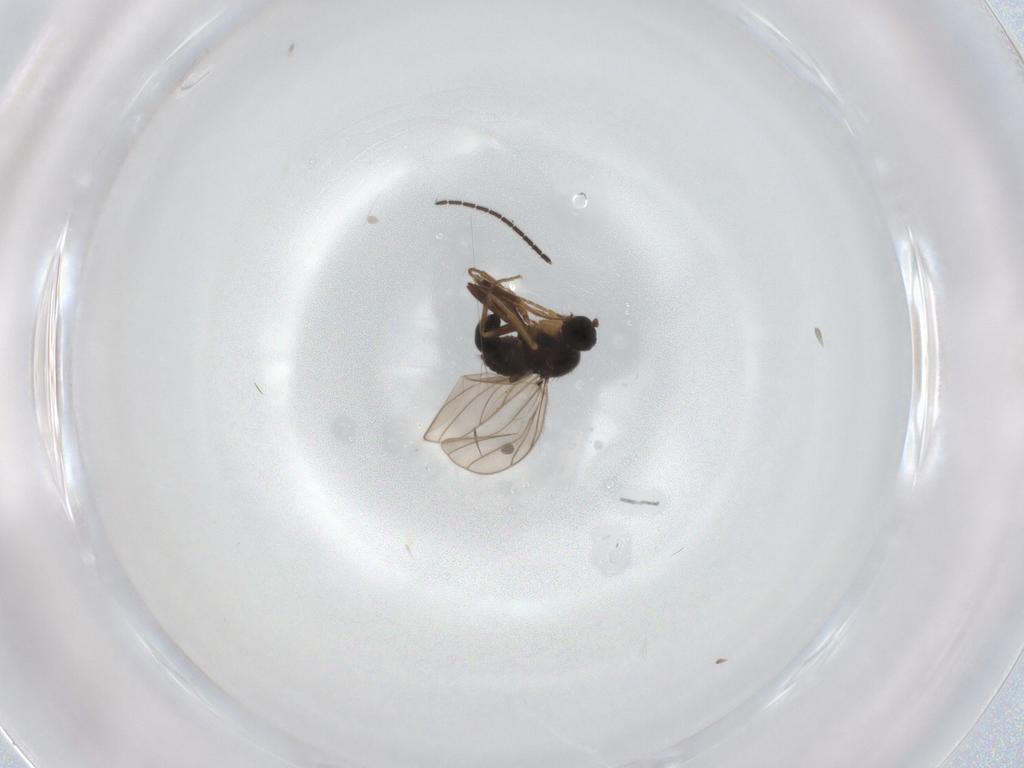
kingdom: Animalia
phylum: Arthropoda
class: Insecta
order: Diptera
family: Hybotidae
